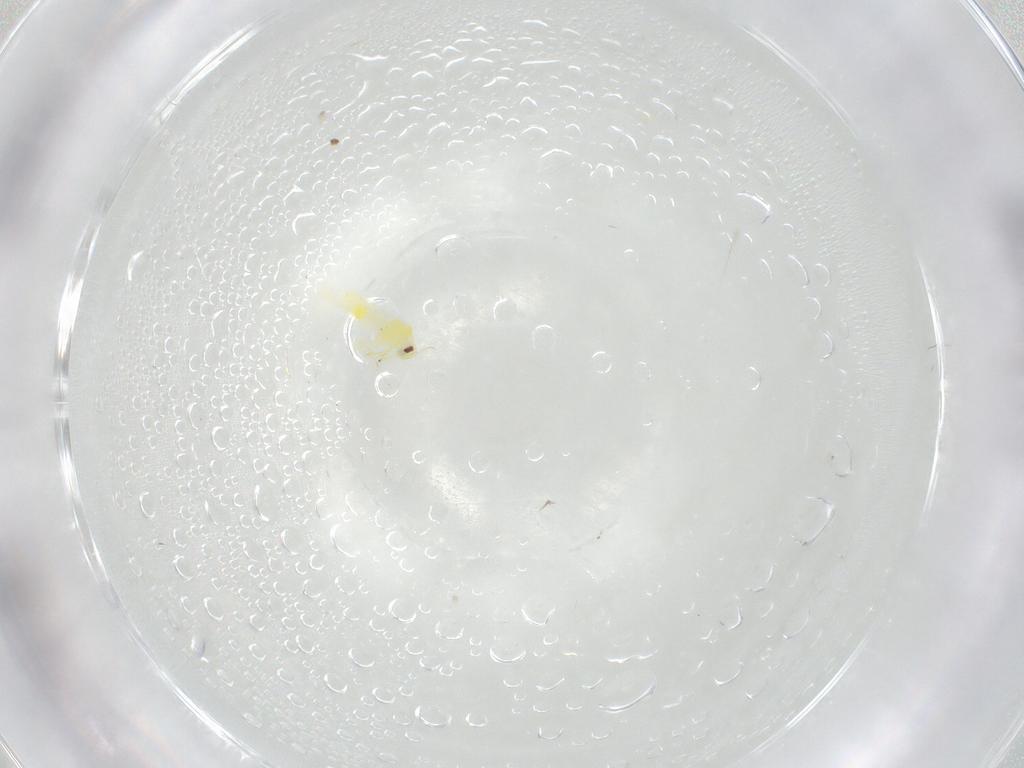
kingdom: Animalia
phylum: Arthropoda
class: Insecta
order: Hemiptera
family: Aleyrodidae
